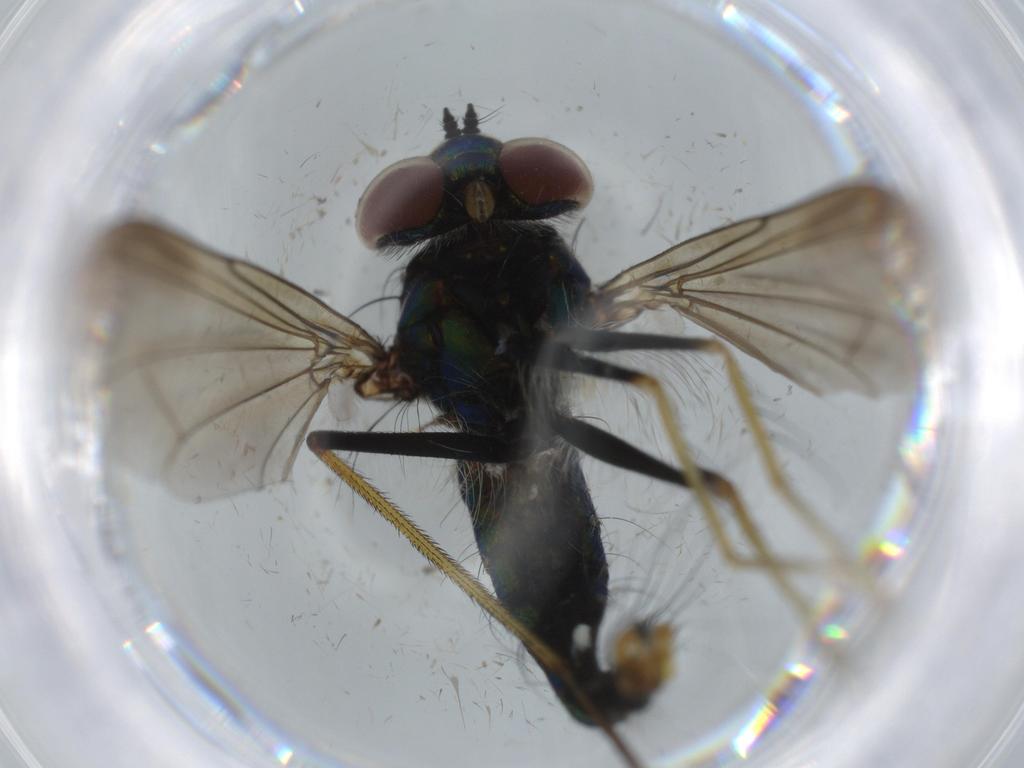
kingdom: Animalia
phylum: Arthropoda
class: Insecta
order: Diptera
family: Dolichopodidae
